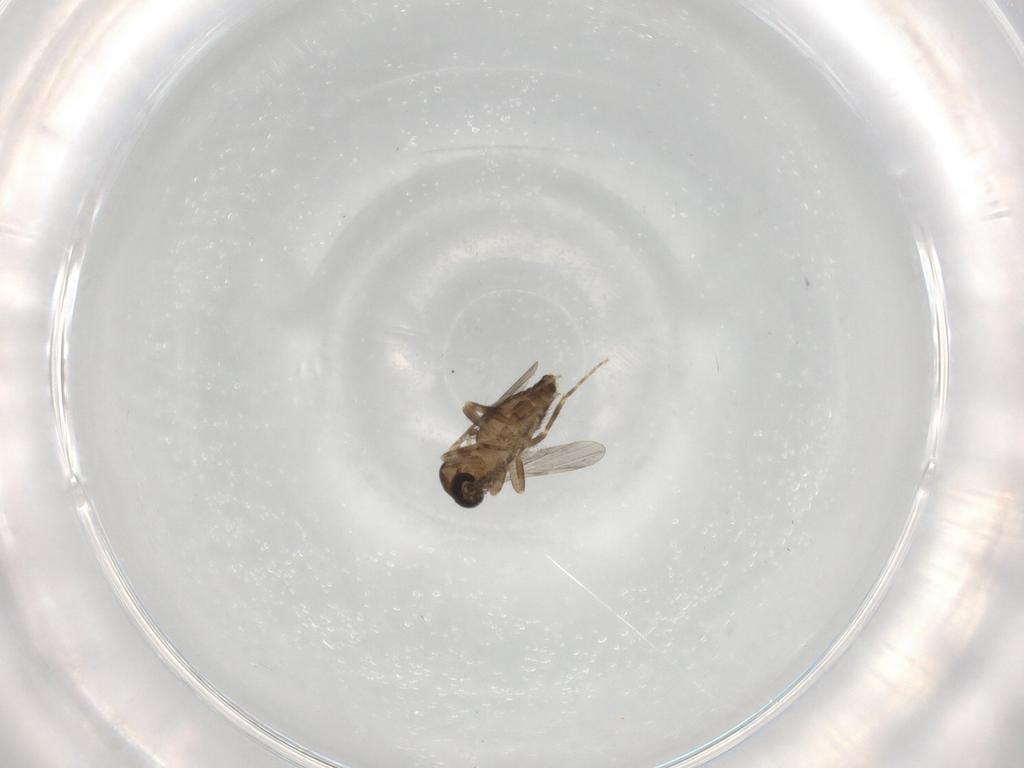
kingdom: Animalia
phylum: Arthropoda
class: Insecta
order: Diptera
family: Ceratopogonidae
